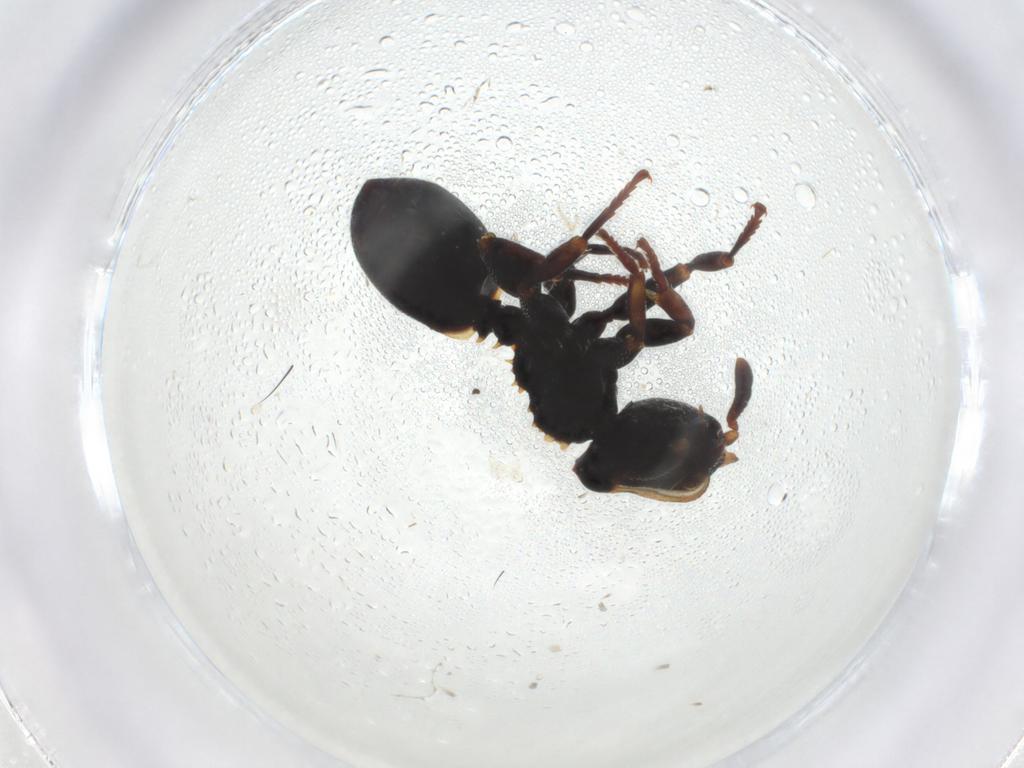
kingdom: Animalia
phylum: Arthropoda
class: Insecta
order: Hymenoptera
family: Formicidae
